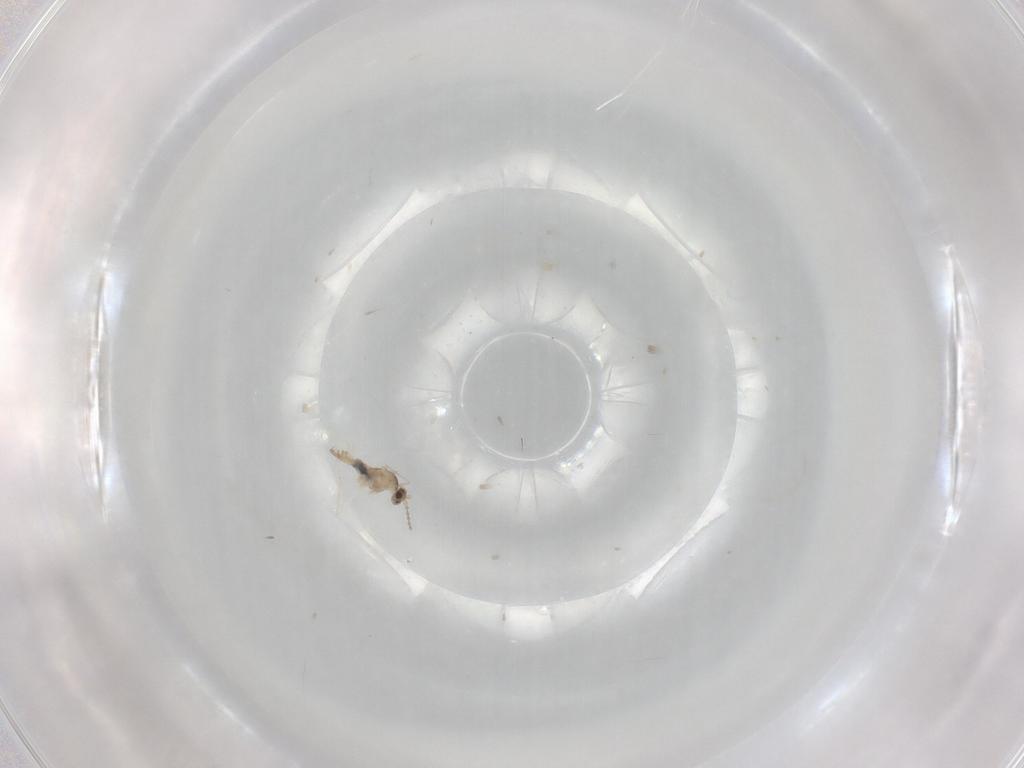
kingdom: Animalia
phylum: Arthropoda
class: Insecta
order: Diptera
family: Cecidomyiidae
